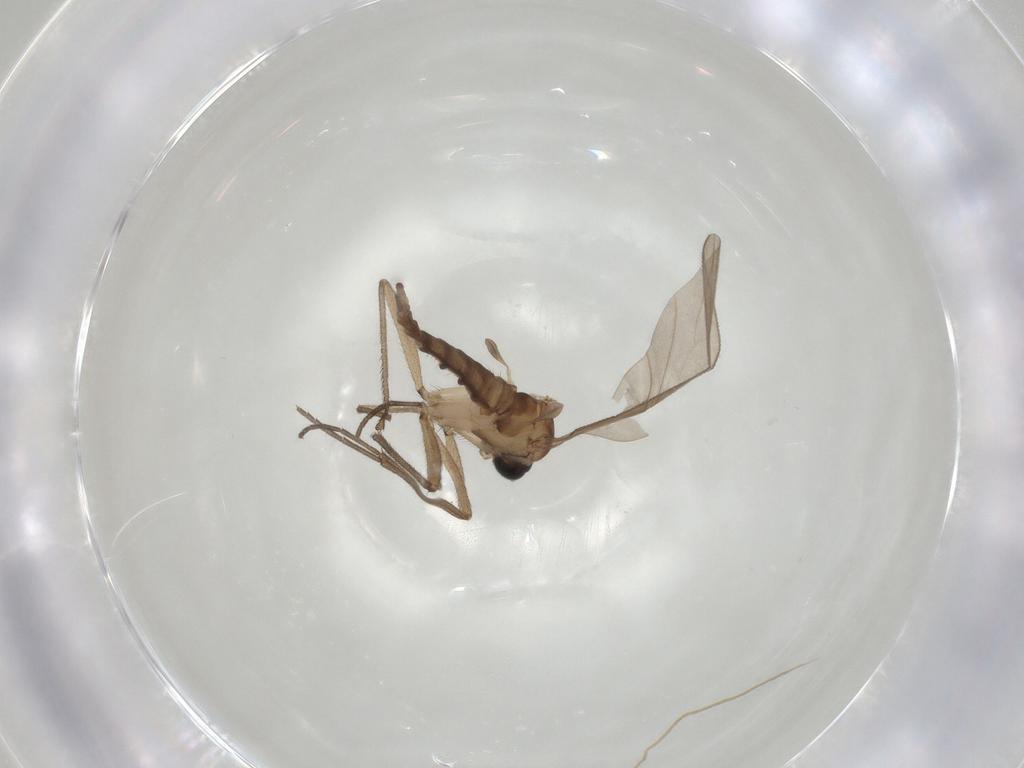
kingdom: Animalia
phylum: Arthropoda
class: Insecta
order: Diptera
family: Sciaridae
